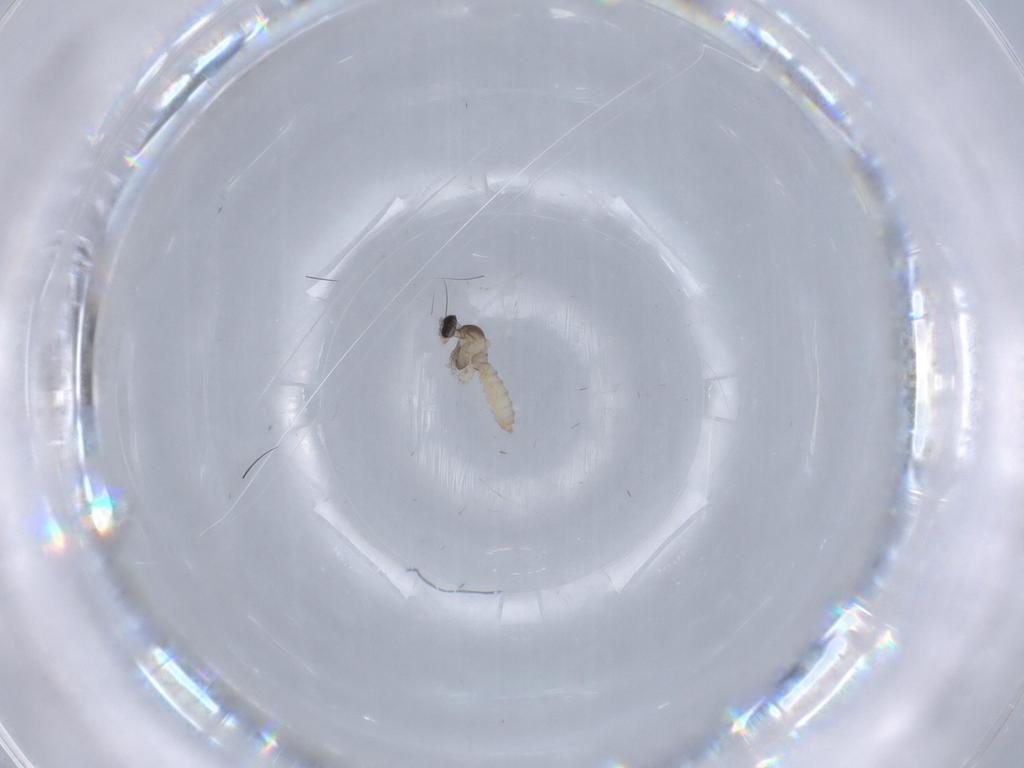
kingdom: Animalia
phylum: Arthropoda
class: Insecta
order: Diptera
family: Cecidomyiidae
